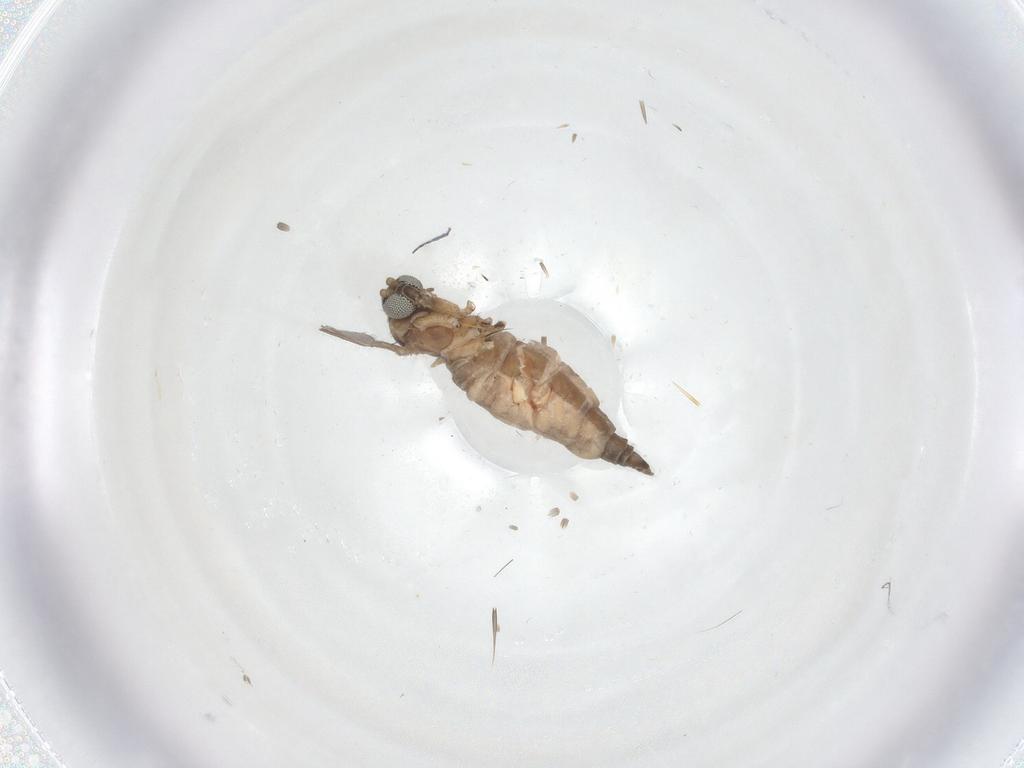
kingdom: Animalia
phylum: Arthropoda
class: Insecta
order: Diptera
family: Sciaridae
